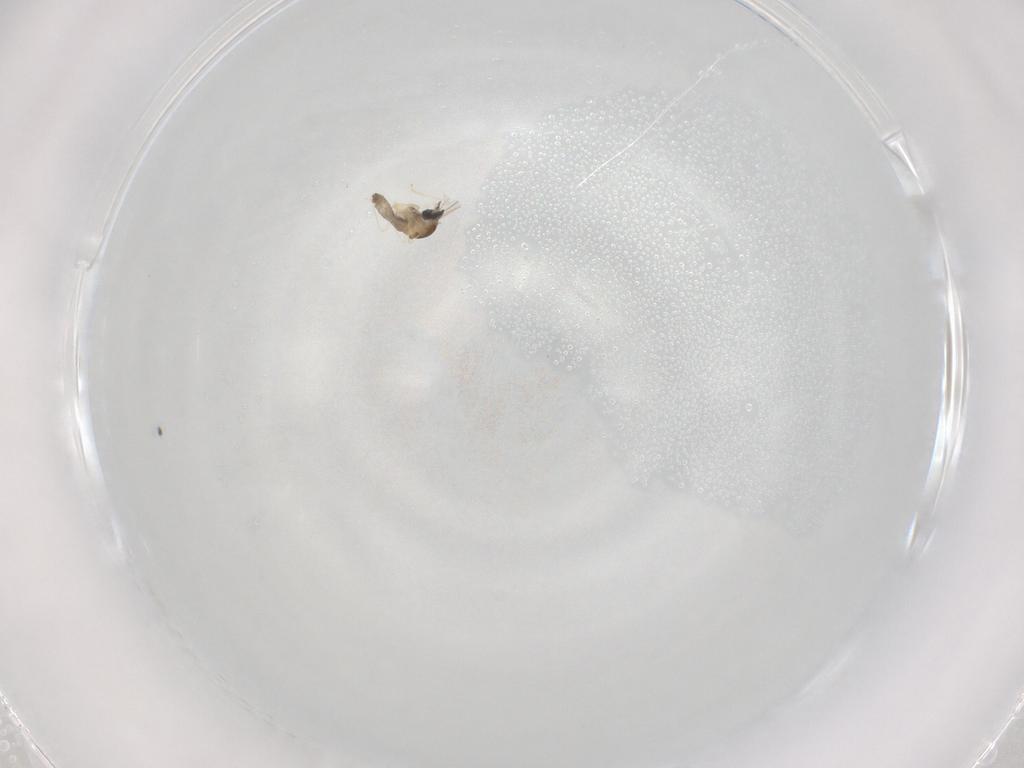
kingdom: Animalia
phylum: Arthropoda
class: Insecta
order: Diptera
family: Cecidomyiidae
